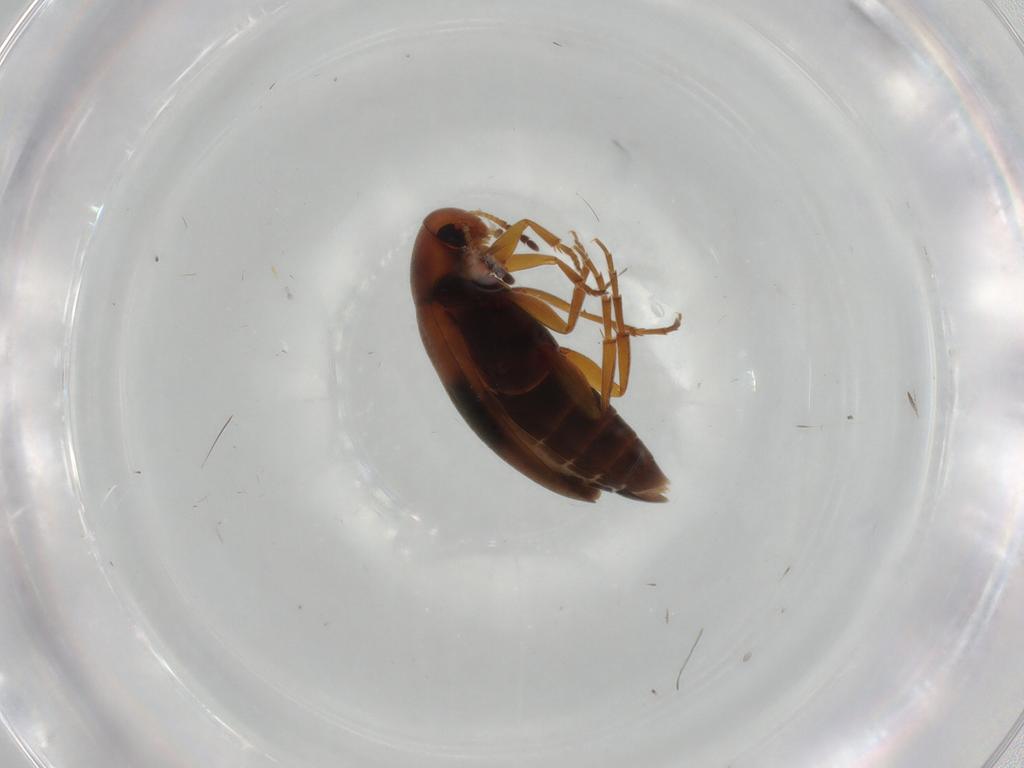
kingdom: Animalia
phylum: Arthropoda
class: Insecta
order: Coleoptera
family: Scraptiidae
